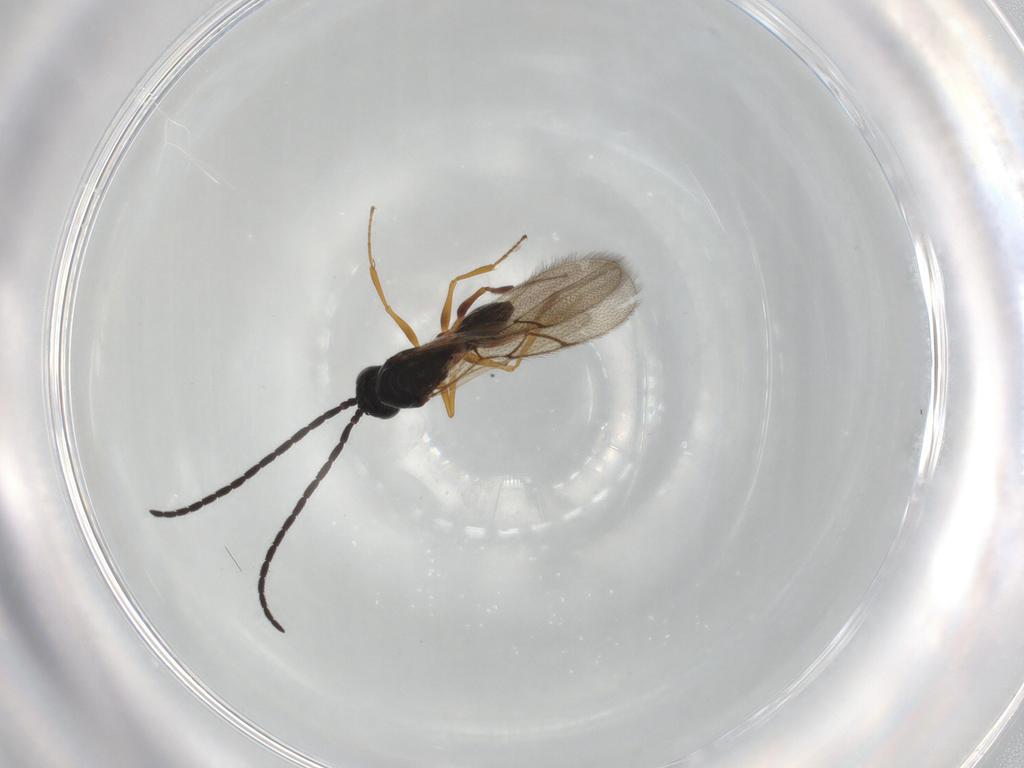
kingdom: Animalia
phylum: Arthropoda
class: Insecta
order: Hymenoptera
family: Figitidae
